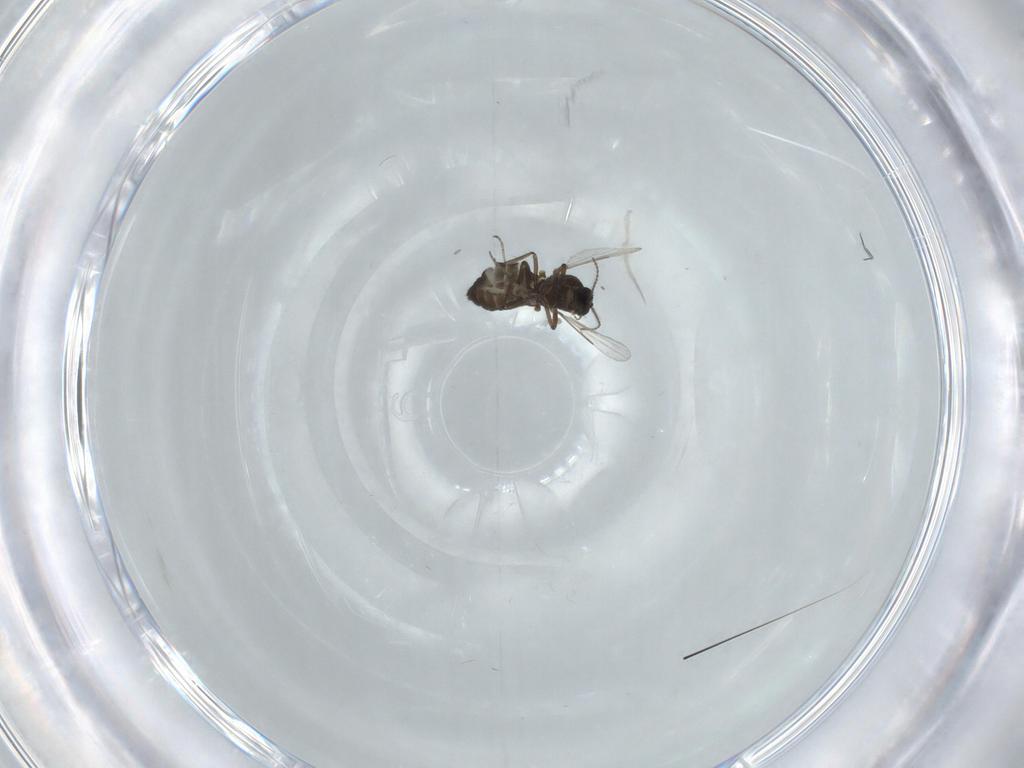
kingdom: Animalia
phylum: Arthropoda
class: Insecta
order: Diptera
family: Ceratopogonidae
